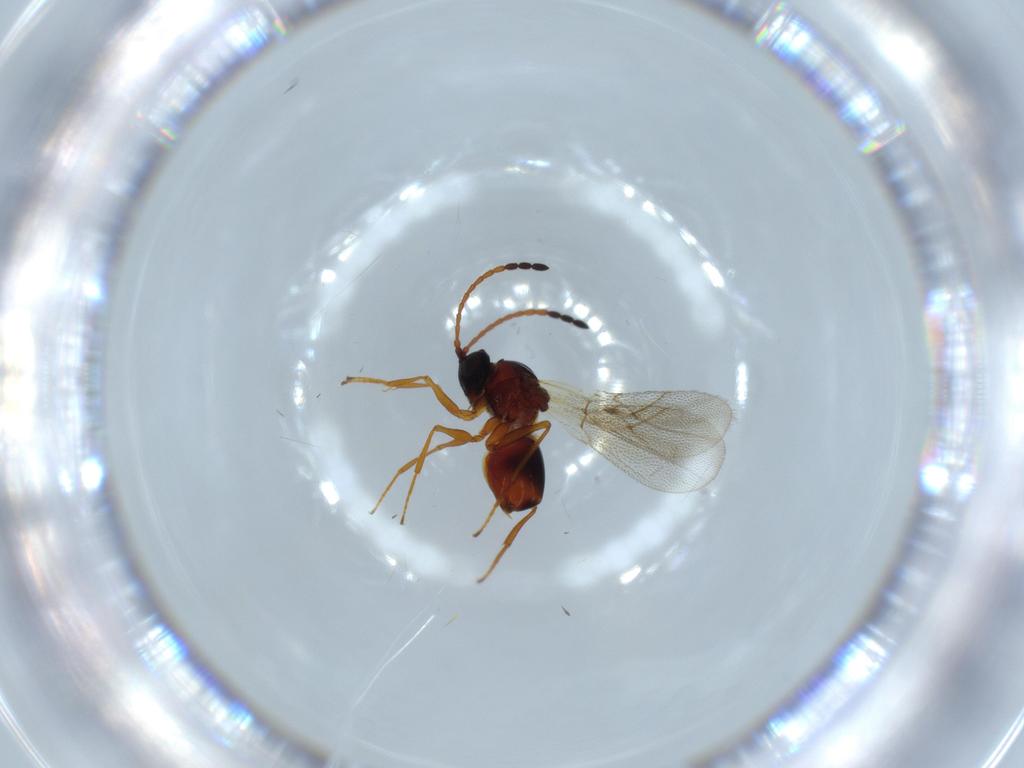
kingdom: Animalia
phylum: Arthropoda
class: Insecta
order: Hymenoptera
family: Figitidae
